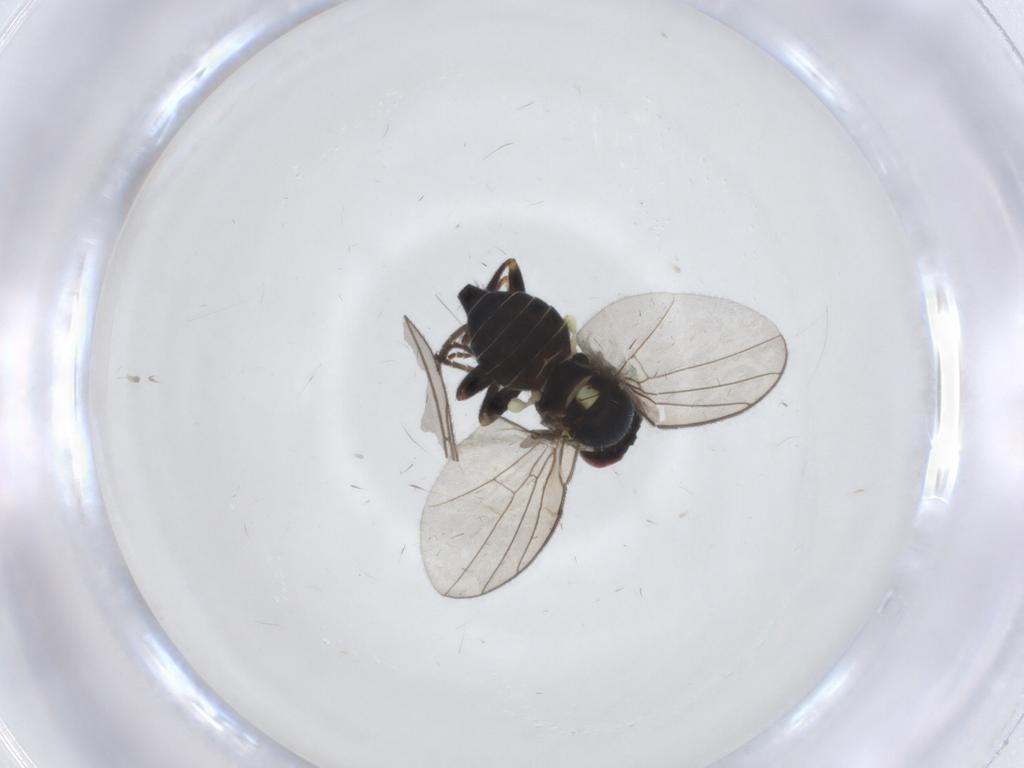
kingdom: Animalia
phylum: Arthropoda
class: Insecta
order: Diptera
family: Agromyzidae
